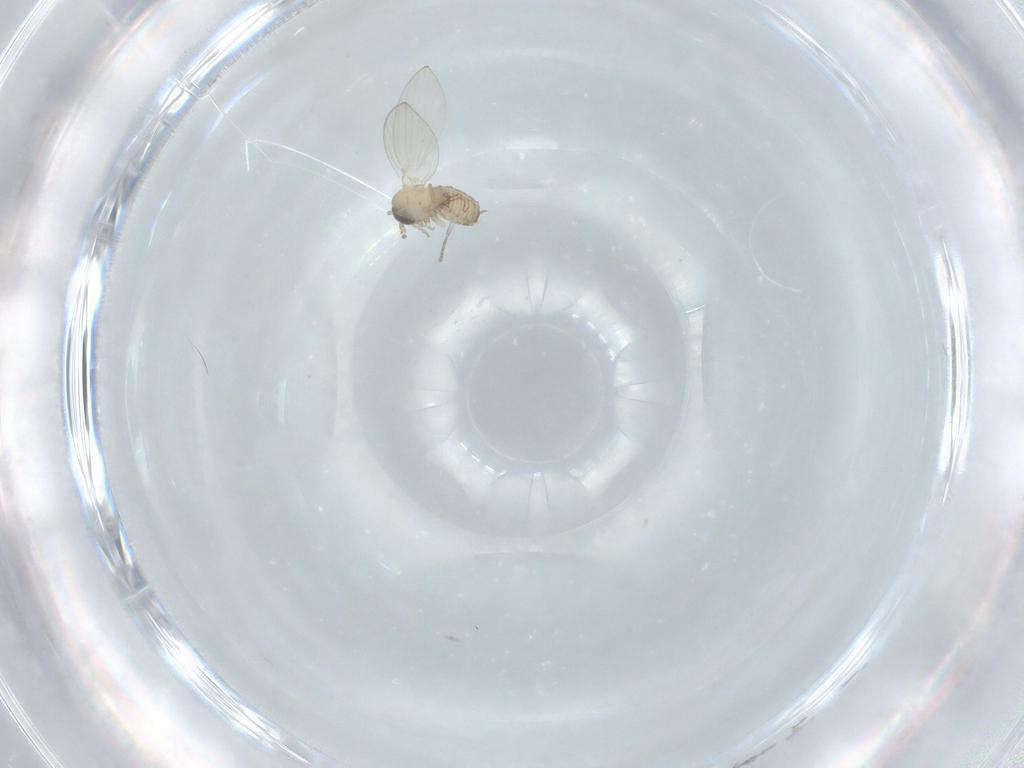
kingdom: Animalia
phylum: Arthropoda
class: Insecta
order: Diptera
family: Psychodidae
